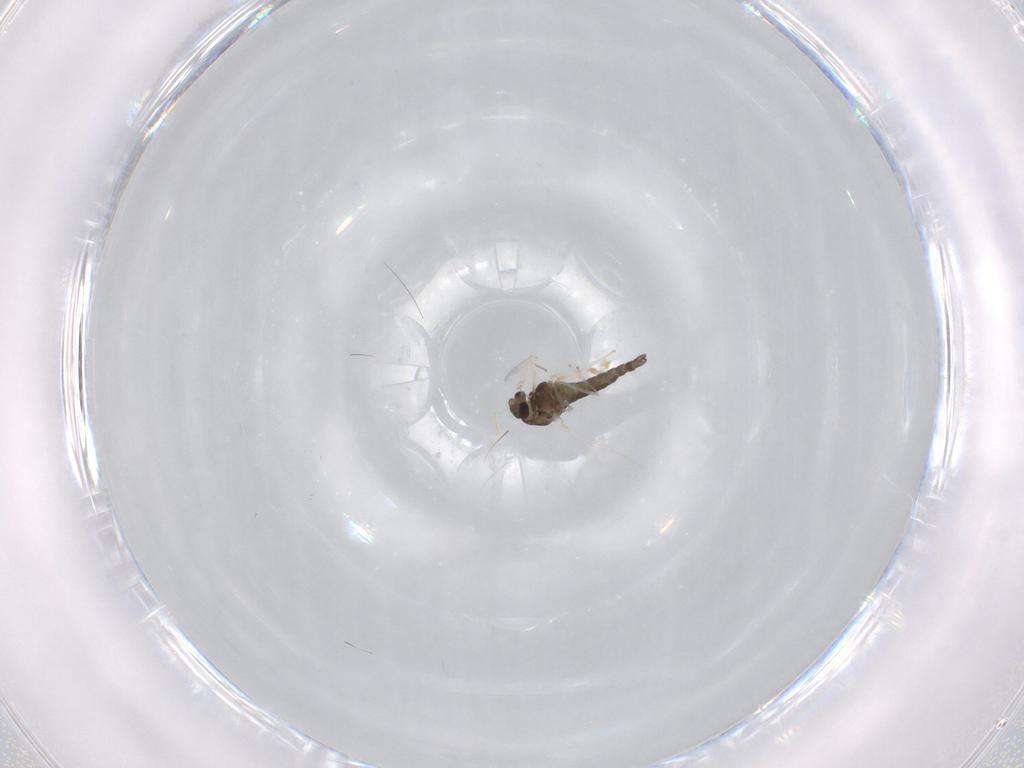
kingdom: Animalia
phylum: Arthropoda
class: Insecta
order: Diptera
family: Chironomidae
